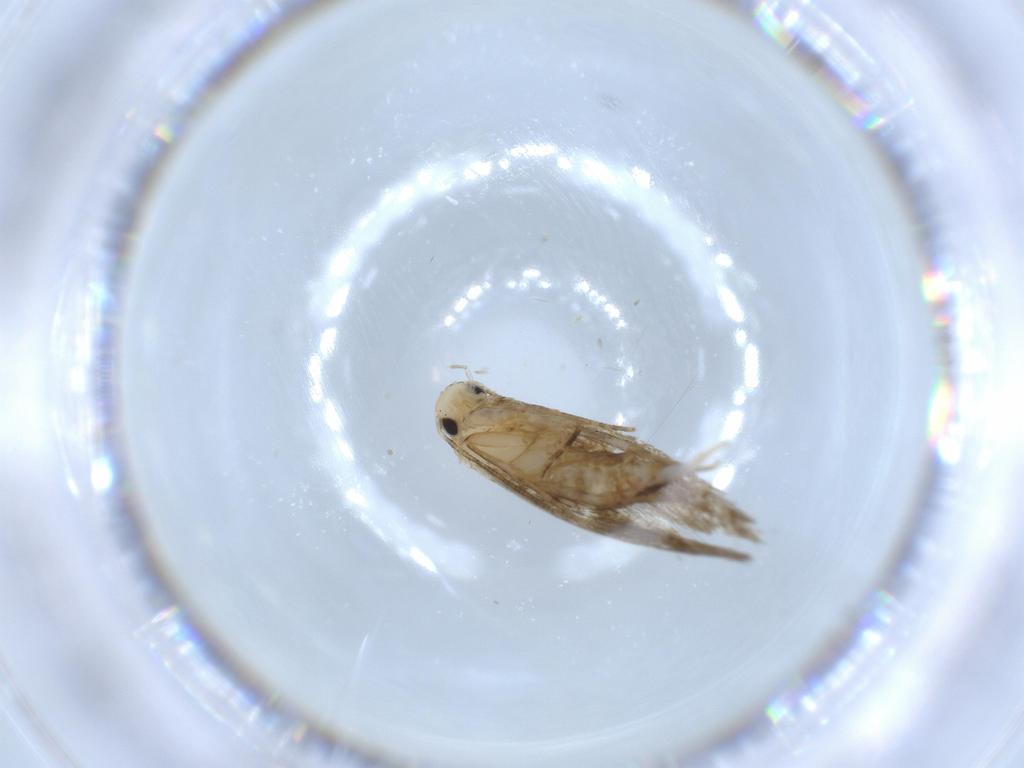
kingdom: Animalia
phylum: Arthropoda
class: Insecta
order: Lepidoptera
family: Tineidae
